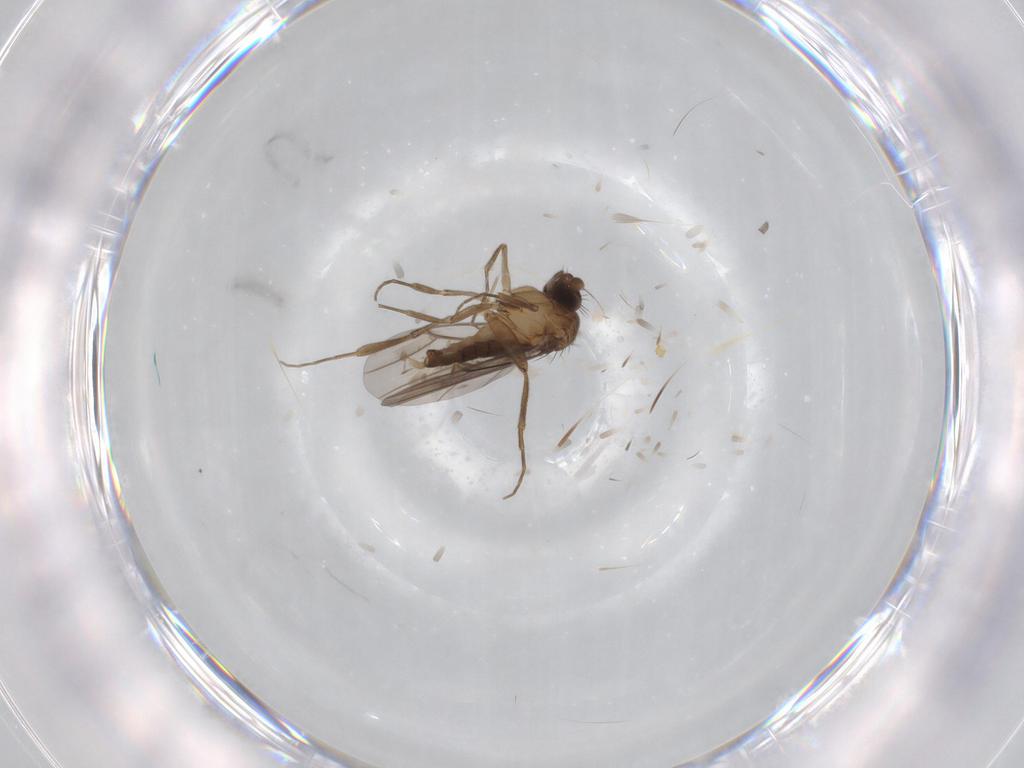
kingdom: Animalia
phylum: Arthropoda
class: Insecta
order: Diptera
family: Phoridae
